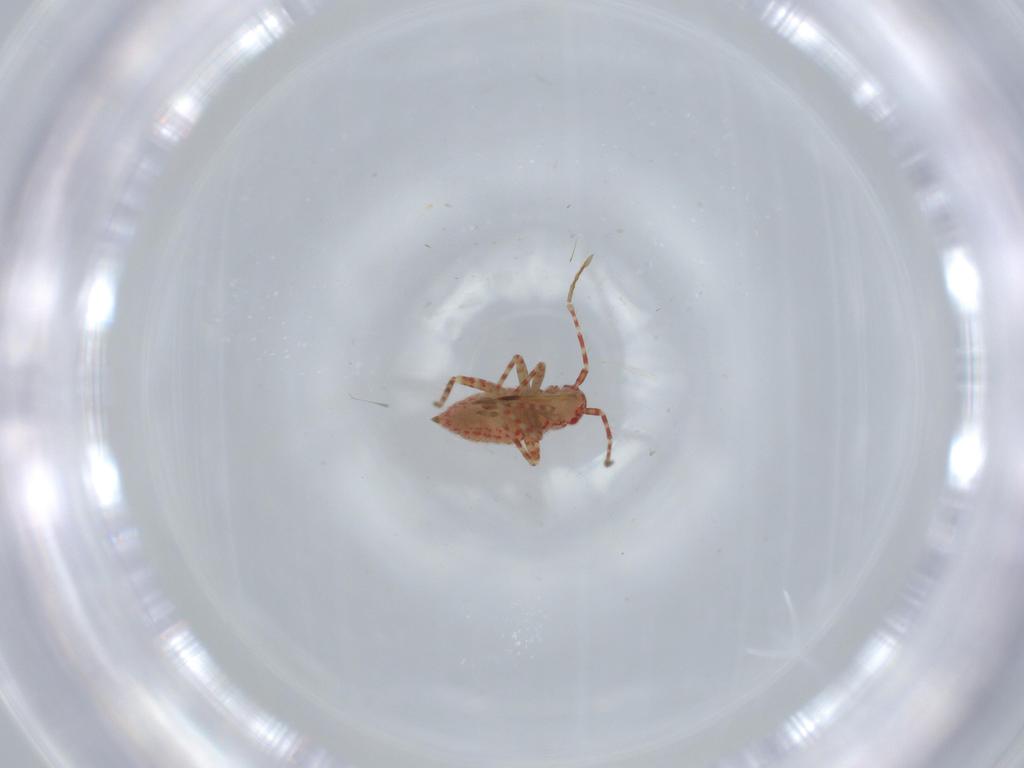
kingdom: Animalia
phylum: Arthropoda
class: Insecta
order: Hemiptera
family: Miridae
